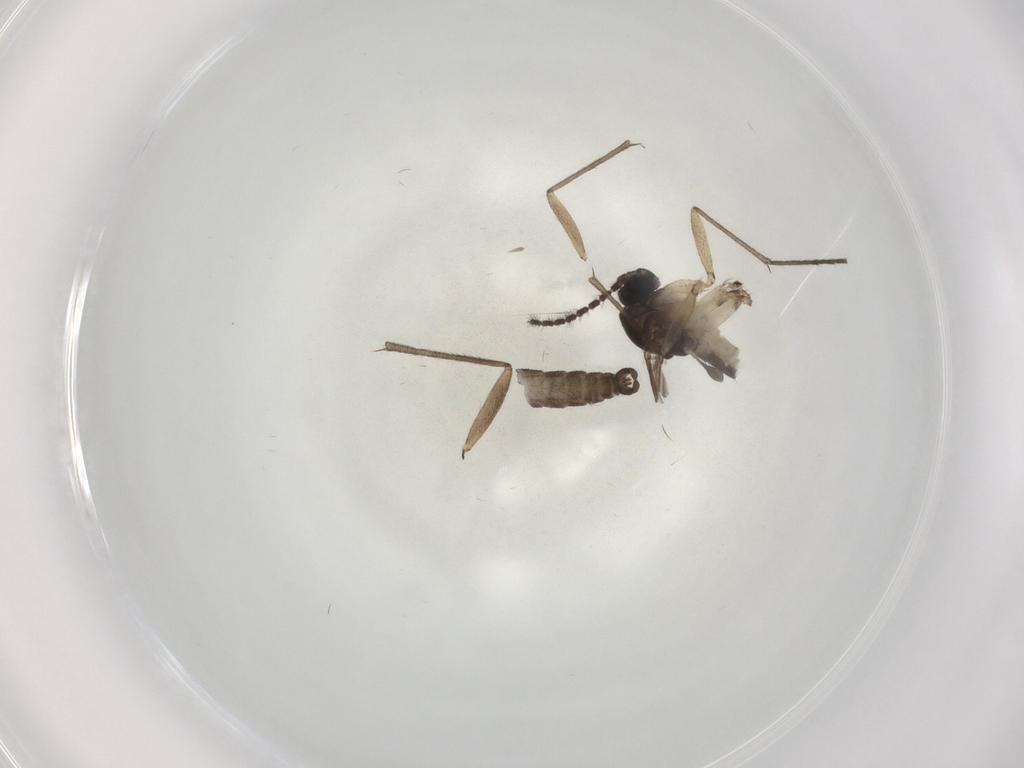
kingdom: Animalia
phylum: Arthropoda
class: Insecta
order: Diptera
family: Sciaridae
